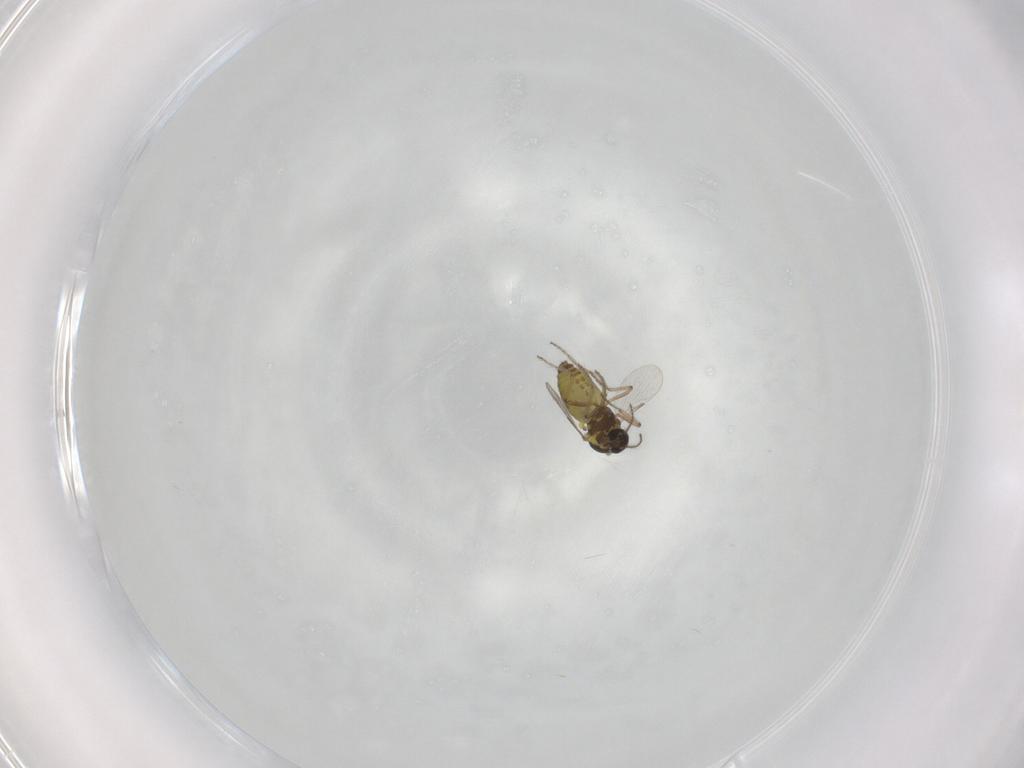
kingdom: Animalia
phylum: Arthropoda
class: Insecta
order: Diptera
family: Ceratopogonidae
